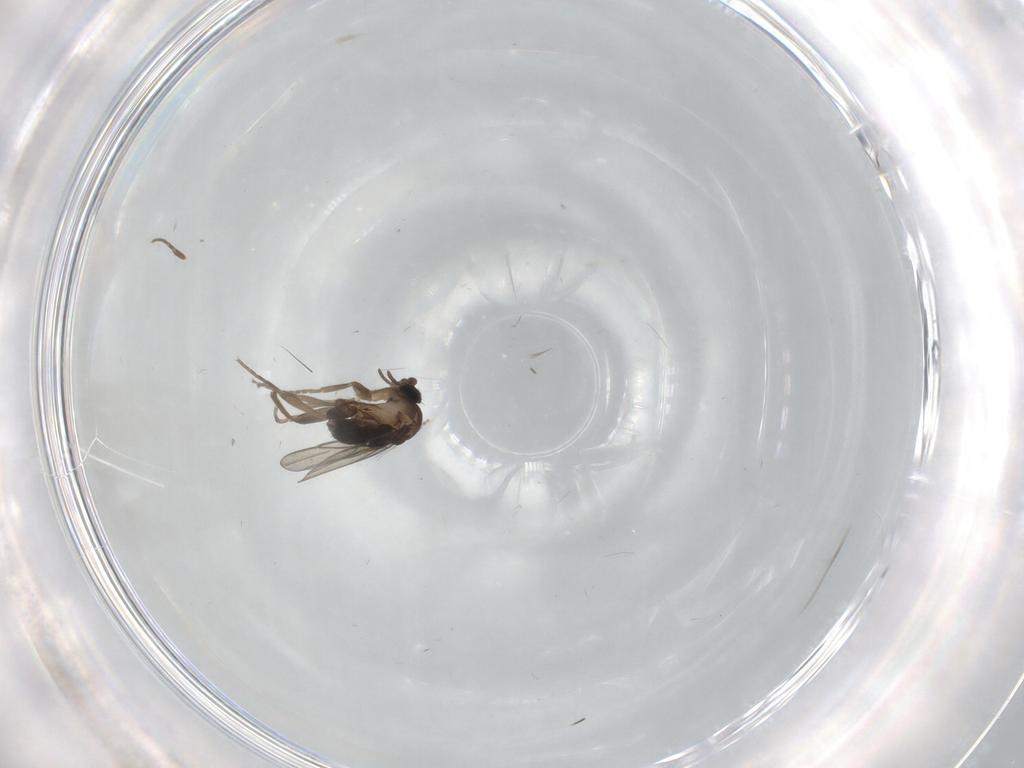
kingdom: Animalia
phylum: Arthropoda
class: Insecta
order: Diptera
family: Cecidomyiidae
